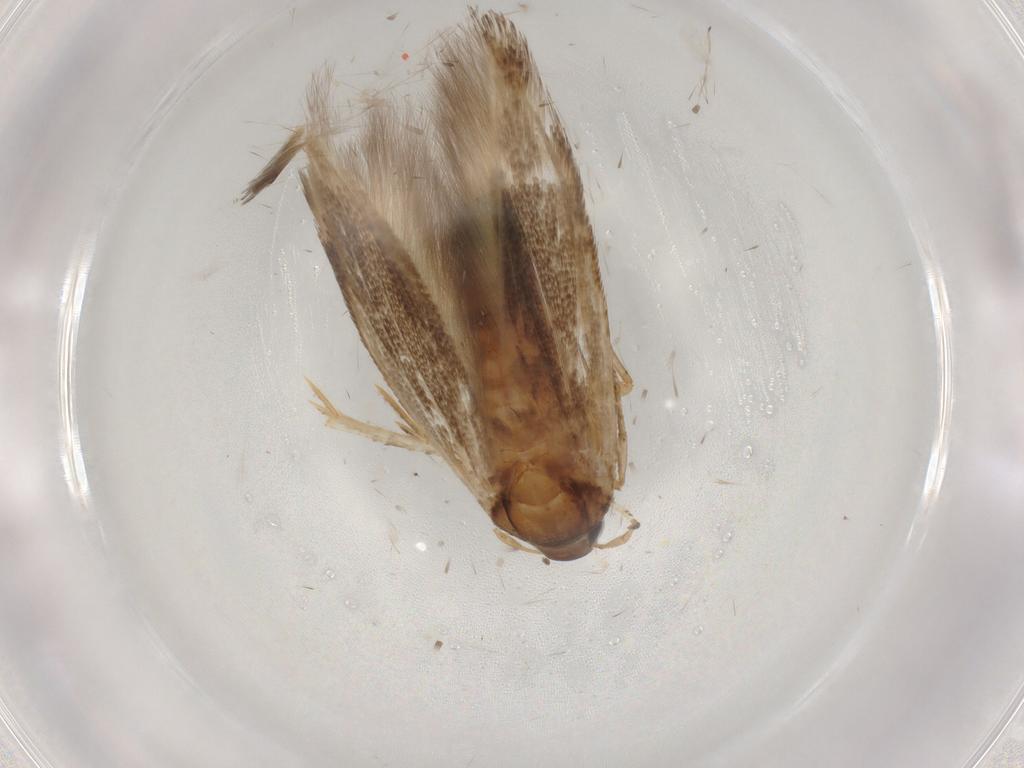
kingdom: Animalia
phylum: Arthropoda
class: Insecta
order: Lepidoptera
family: Cosmopterigidae
